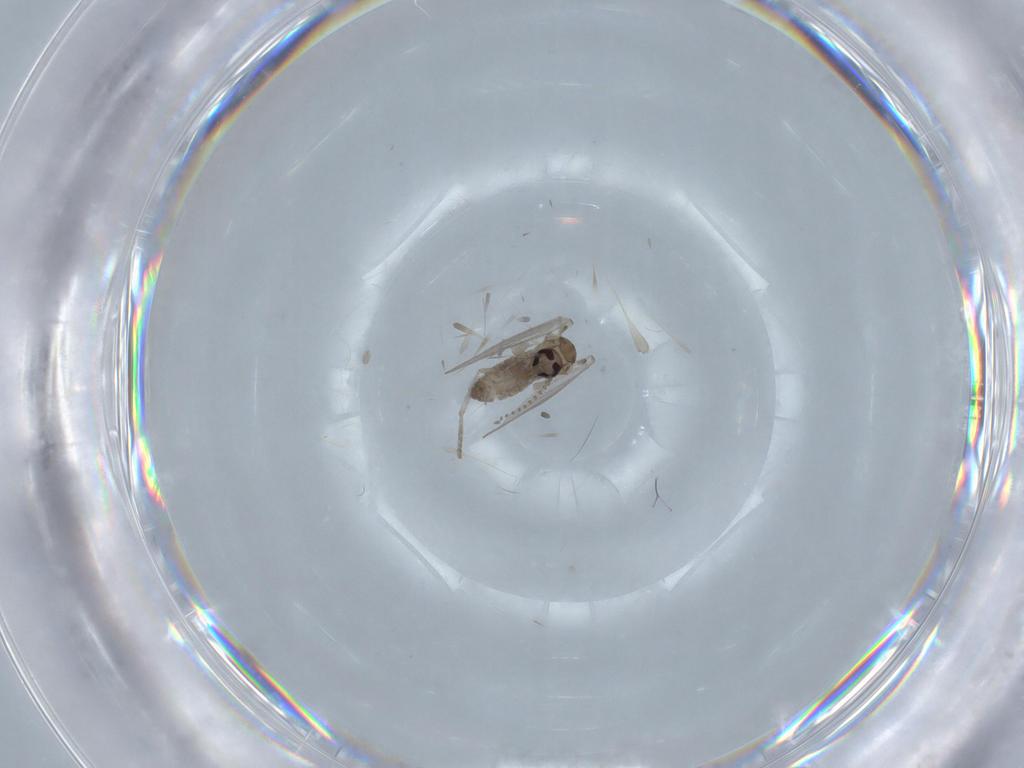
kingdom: Animalia
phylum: Arthropoda
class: Insecta
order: Diptera
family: Psychodidae
